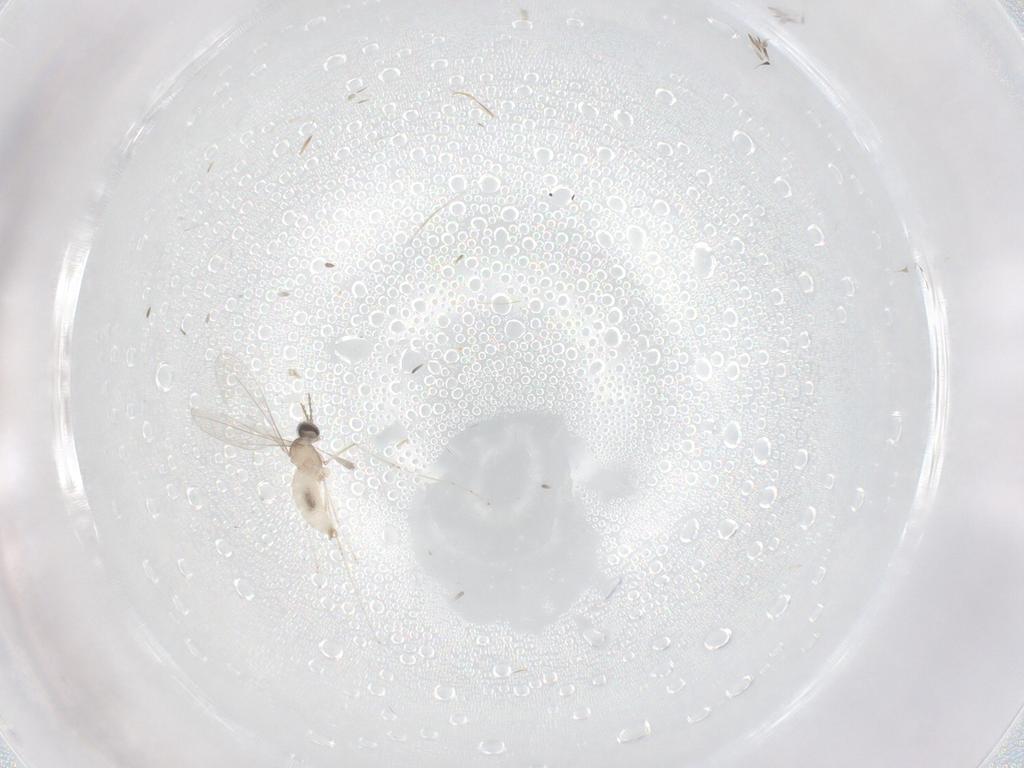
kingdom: Animalia
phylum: Arthropoda
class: Insecta
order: Diptera
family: Cecidomyiidae
